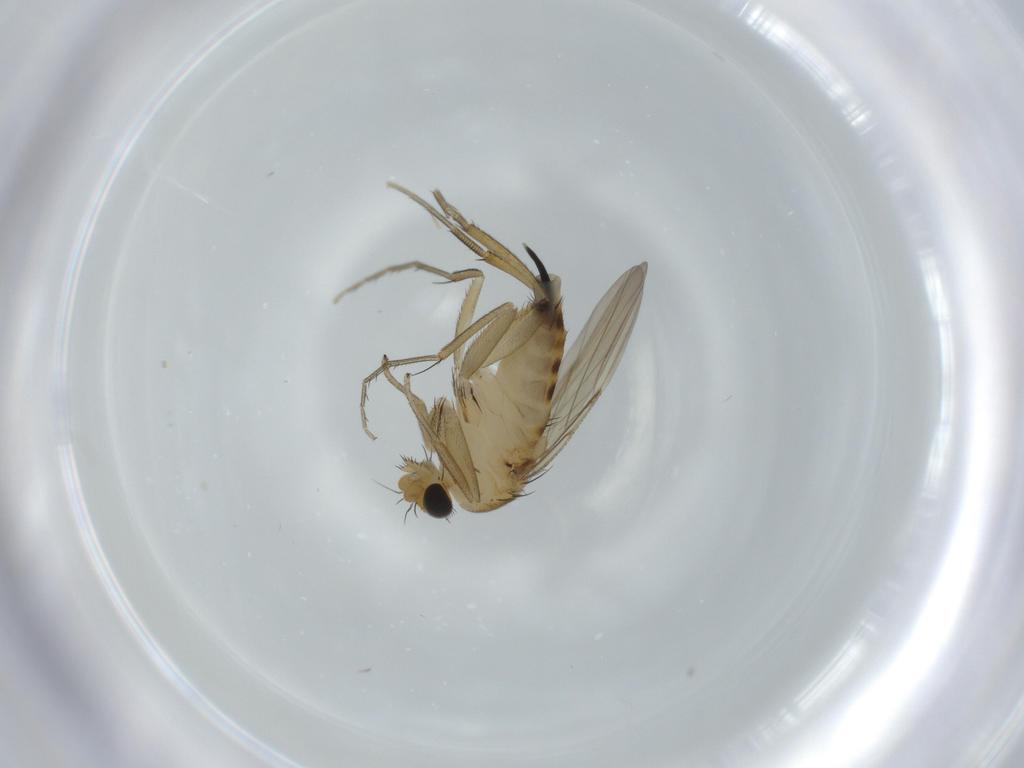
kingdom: Animalia
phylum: Arthropoda
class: Insecta
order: Diptera
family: Phoridae
